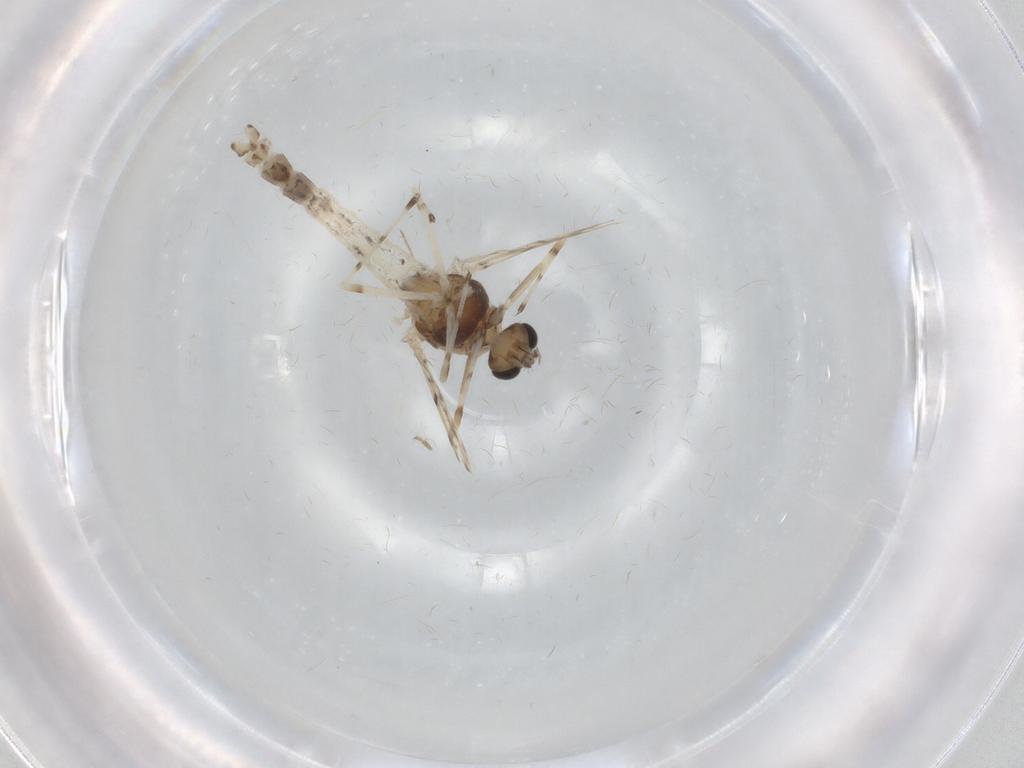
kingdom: Animalia
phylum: Arthropoda
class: Insecta
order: Diptera
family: Chironomidae
